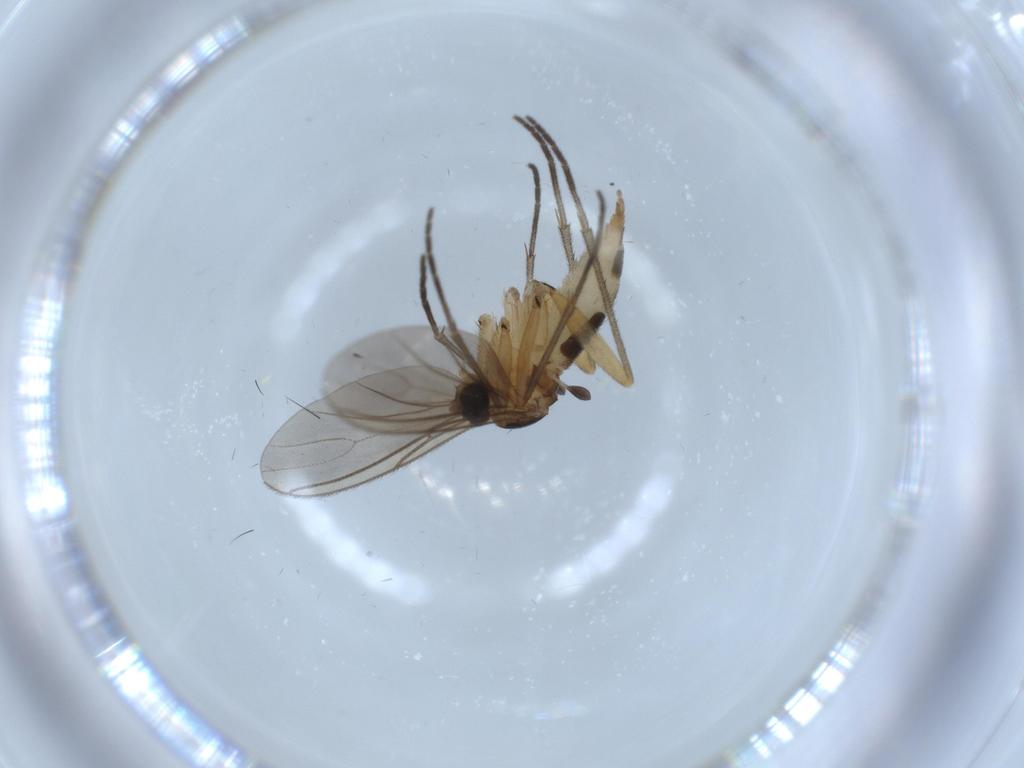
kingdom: Animalia
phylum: Arthropoda
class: Insecta
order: Diptera
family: Sciaridae
